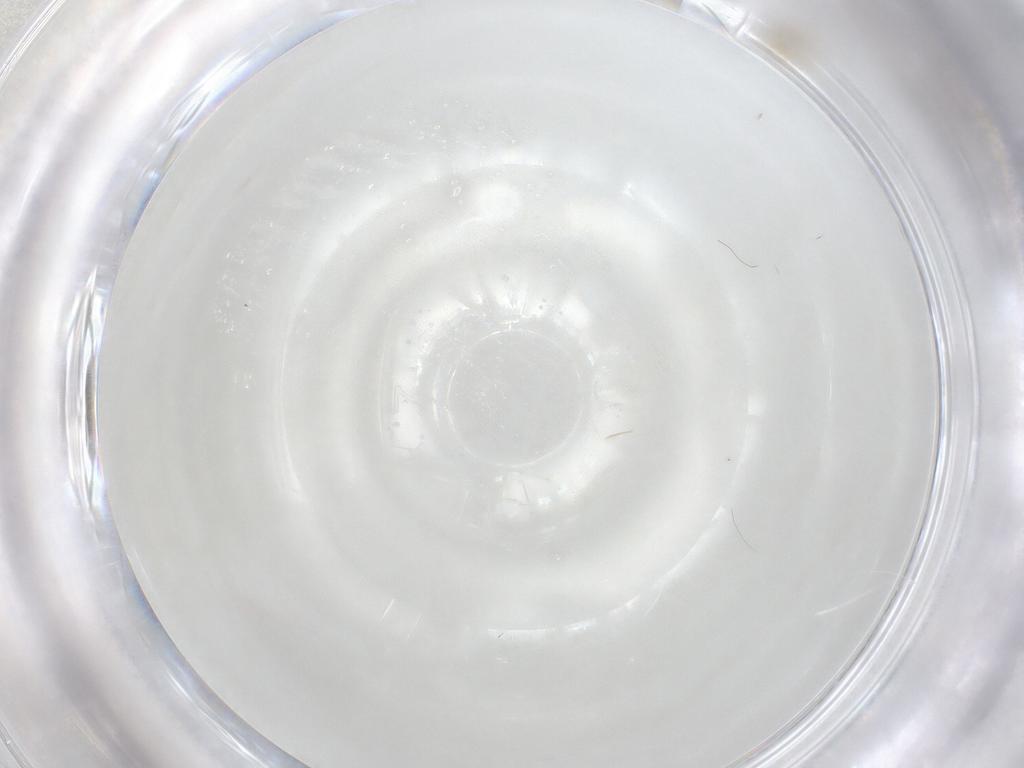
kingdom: Animalia
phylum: Arthropoda
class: Insecta
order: Hymenoptera
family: Trichogrammatidae
